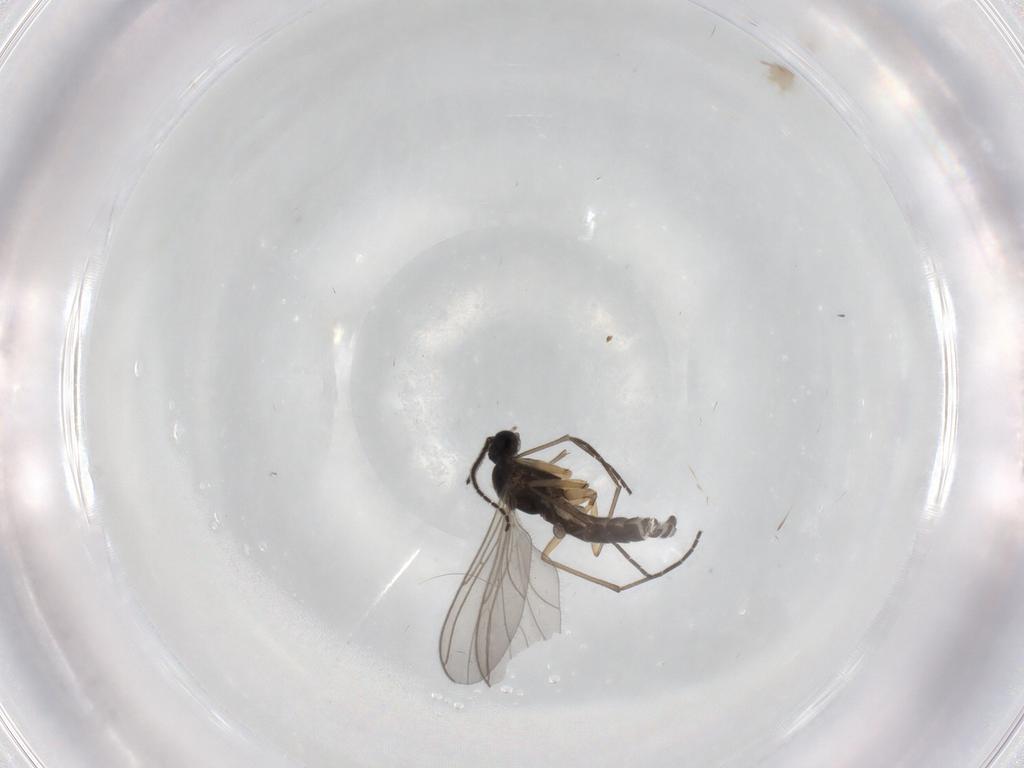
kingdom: Animalia
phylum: Arthropoda
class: Insecta
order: Diptera
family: Sciaridae
